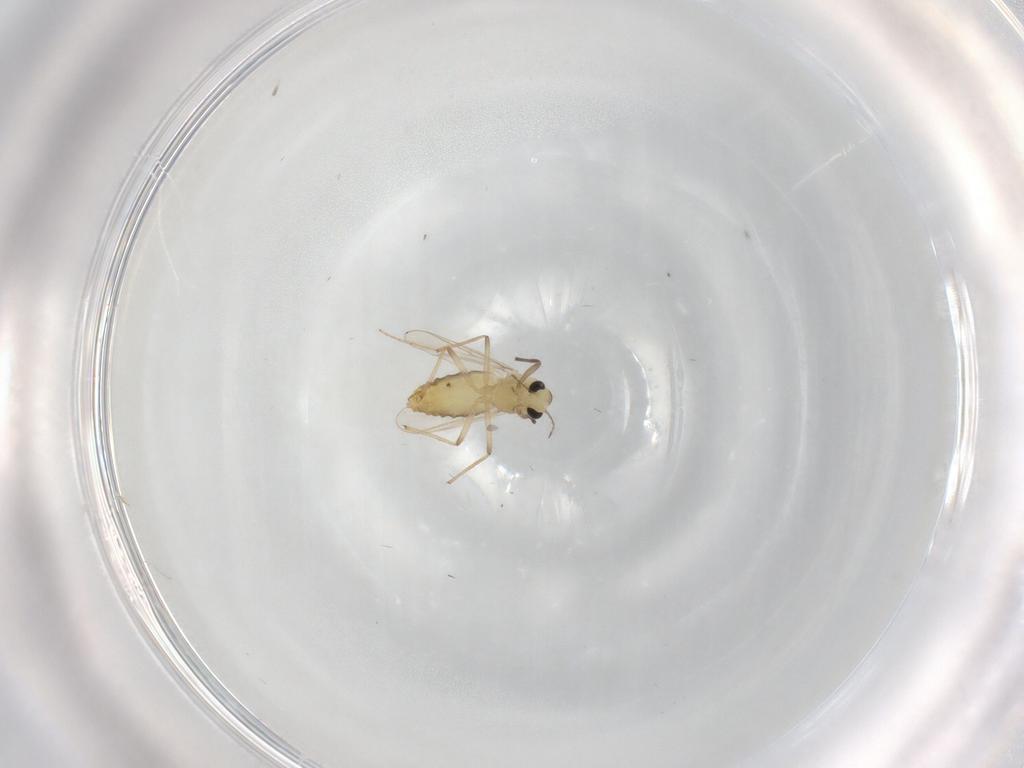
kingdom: Animalia
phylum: Arthropoda
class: Insecta
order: Diptera
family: Chironomidae
